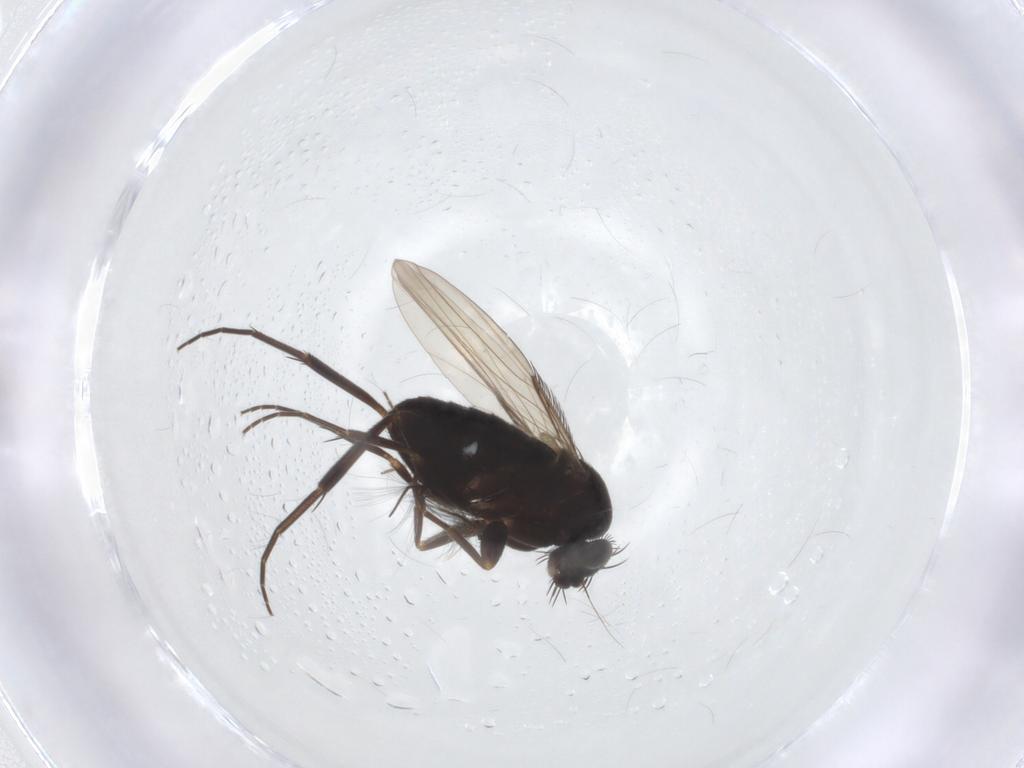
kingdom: Animalia
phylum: Arthropoda
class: Insecta
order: Diptera
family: Phoridae
